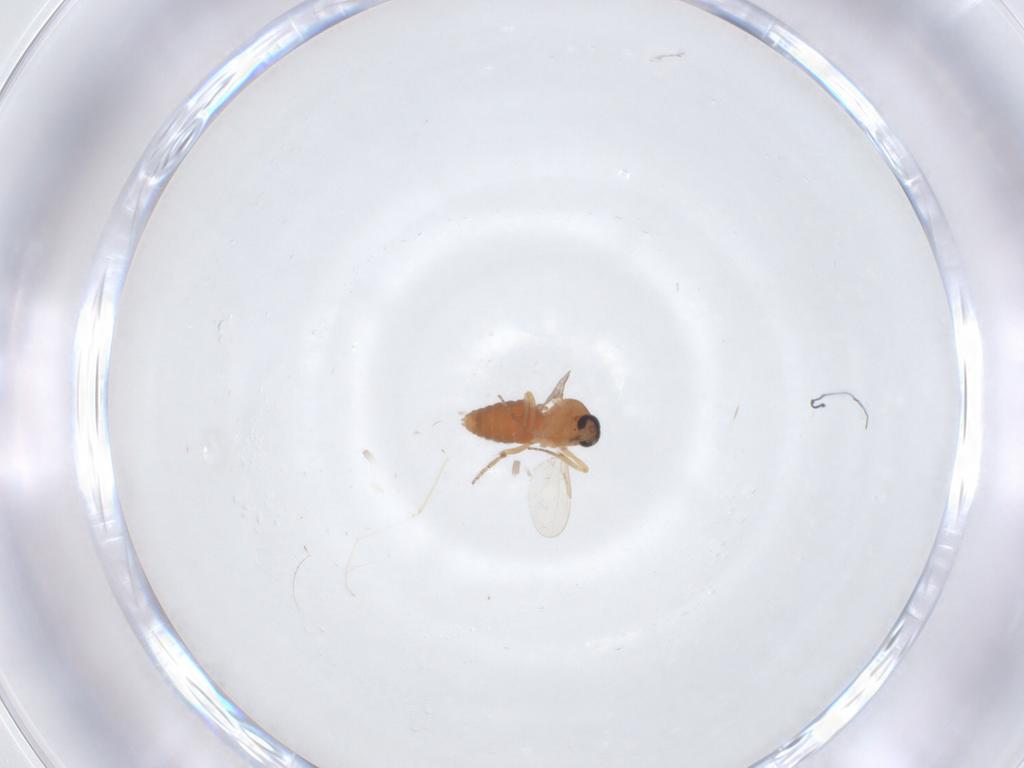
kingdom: Animalia
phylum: Arthropoda
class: Insecta
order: Diptera
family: Cecidomyiidae
